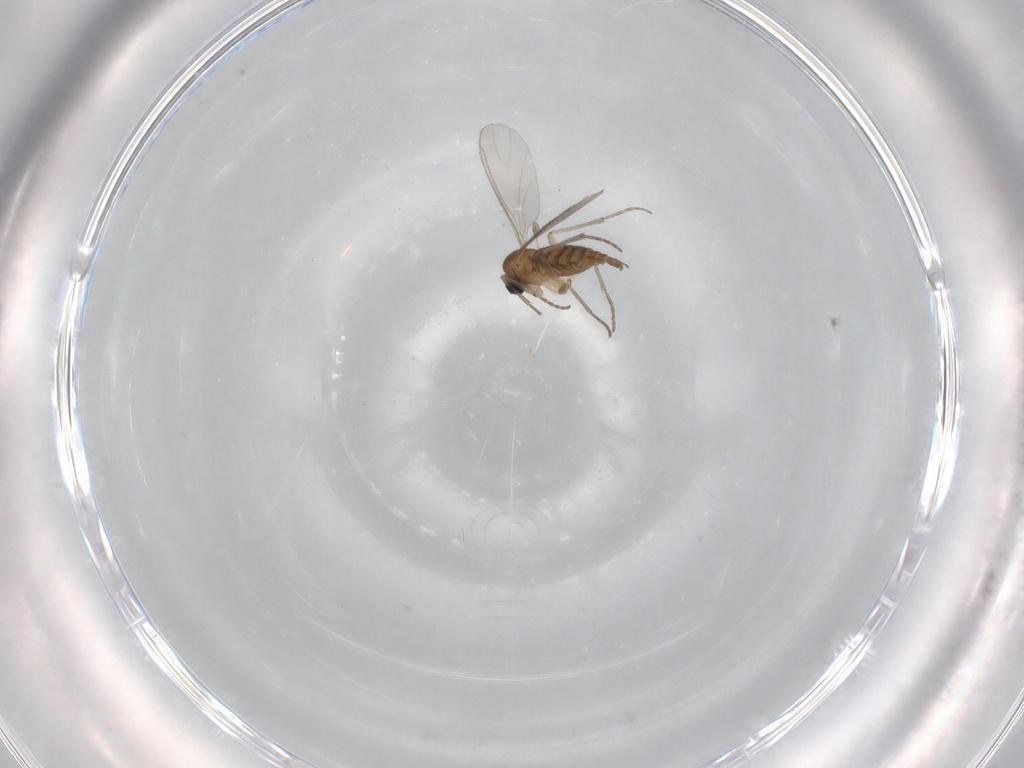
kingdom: Animalia
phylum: Arthropoda
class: Insecta
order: Diptera
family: Sciaridae
